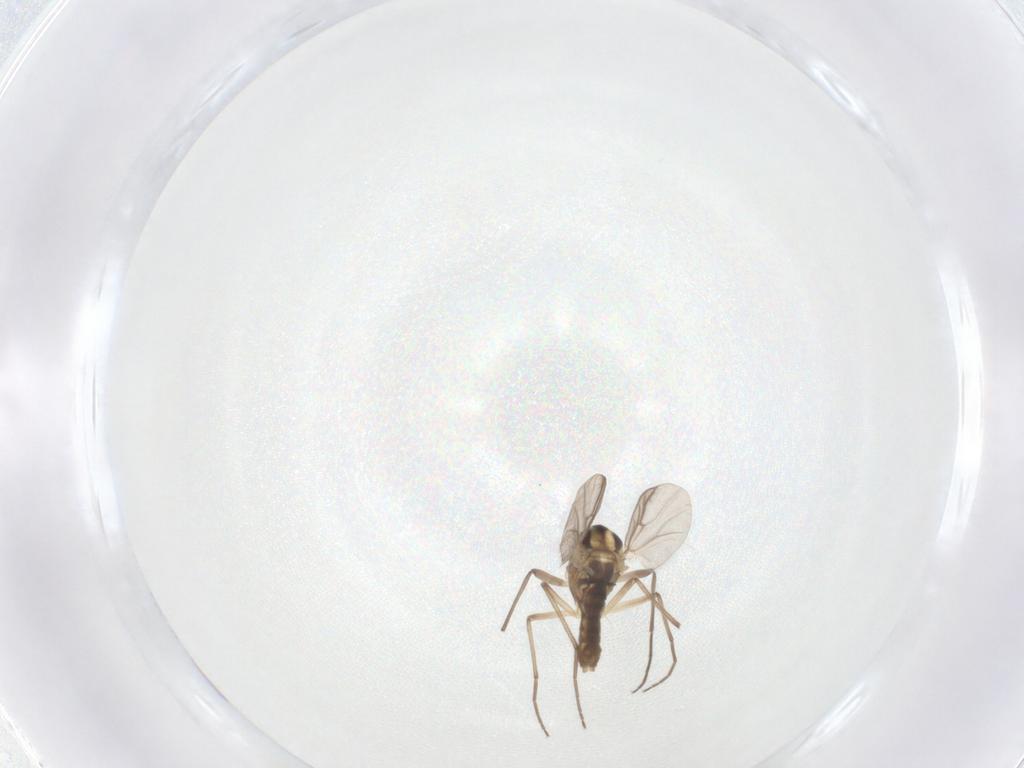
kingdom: Animalia
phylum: Arthropoda
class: Insecta
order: Diptera
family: Chironomidae
